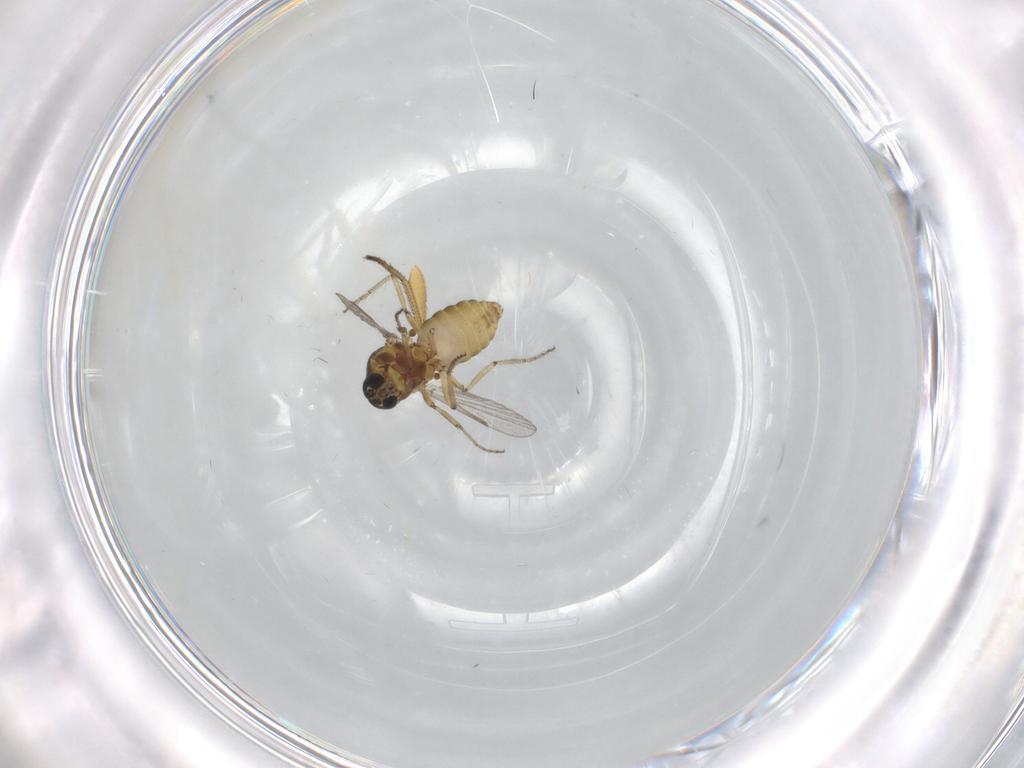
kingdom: Animalia
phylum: Arthropoda
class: Insecta
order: Diptera
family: Ceratopogonidae
